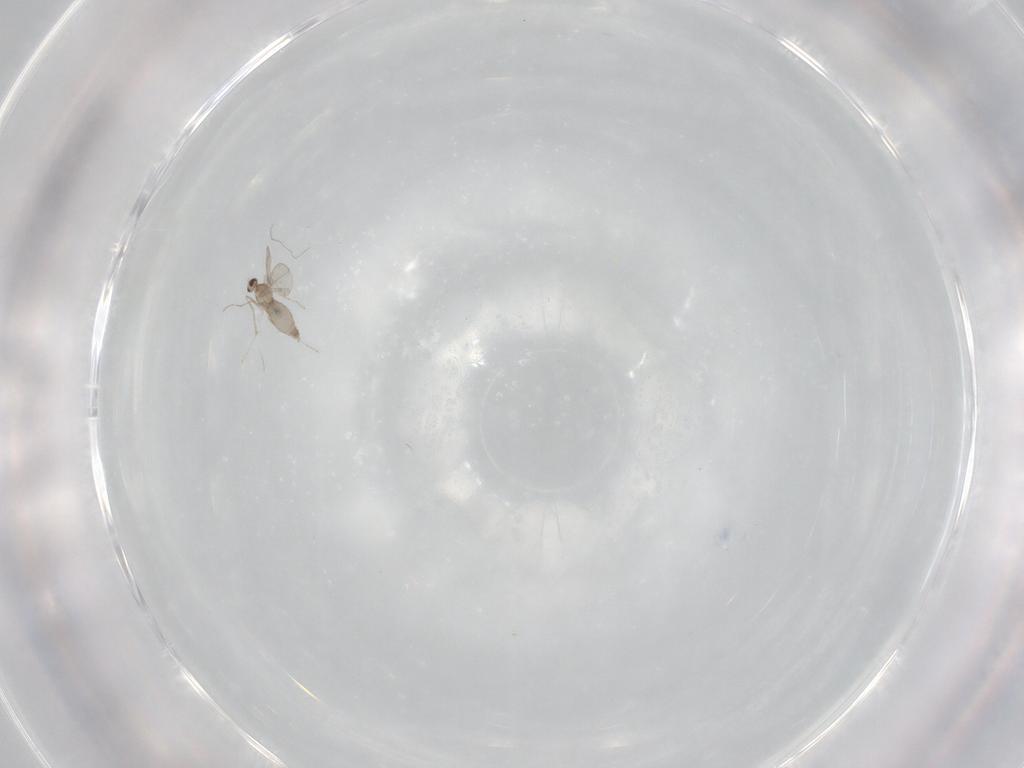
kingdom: Animalia
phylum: Arthropoda
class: Insecta
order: Diptera
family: Cecidomyiidae
